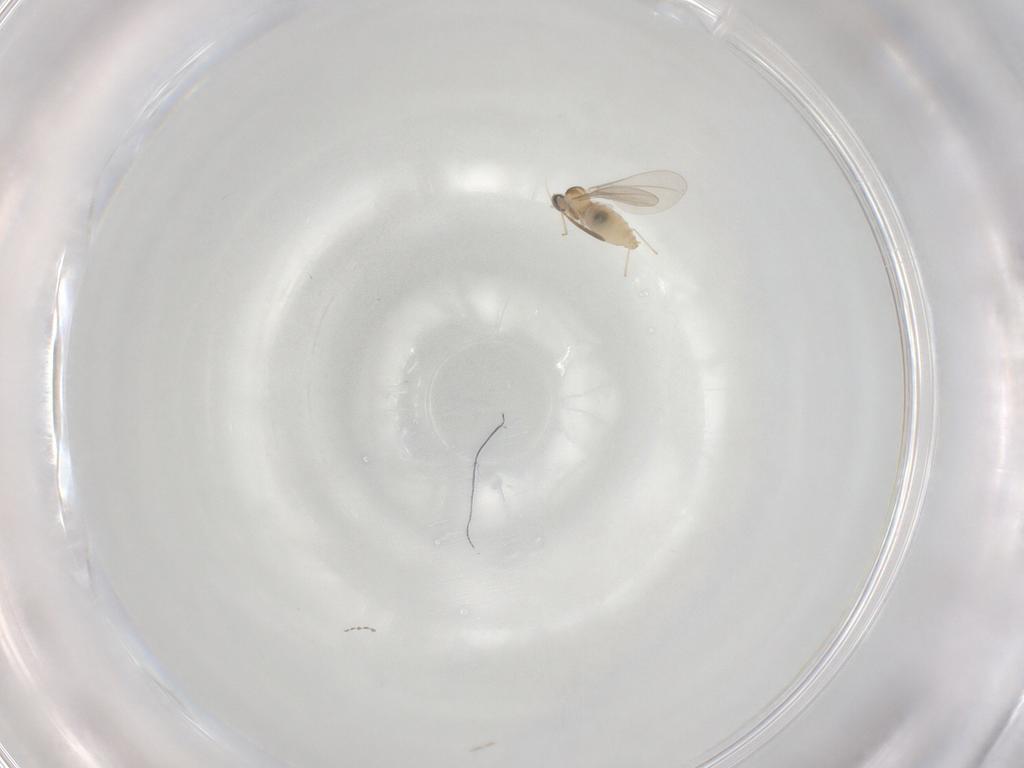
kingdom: Animalia
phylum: Arthropoda
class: Insecta
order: Diptera
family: Cecidomyiidae
